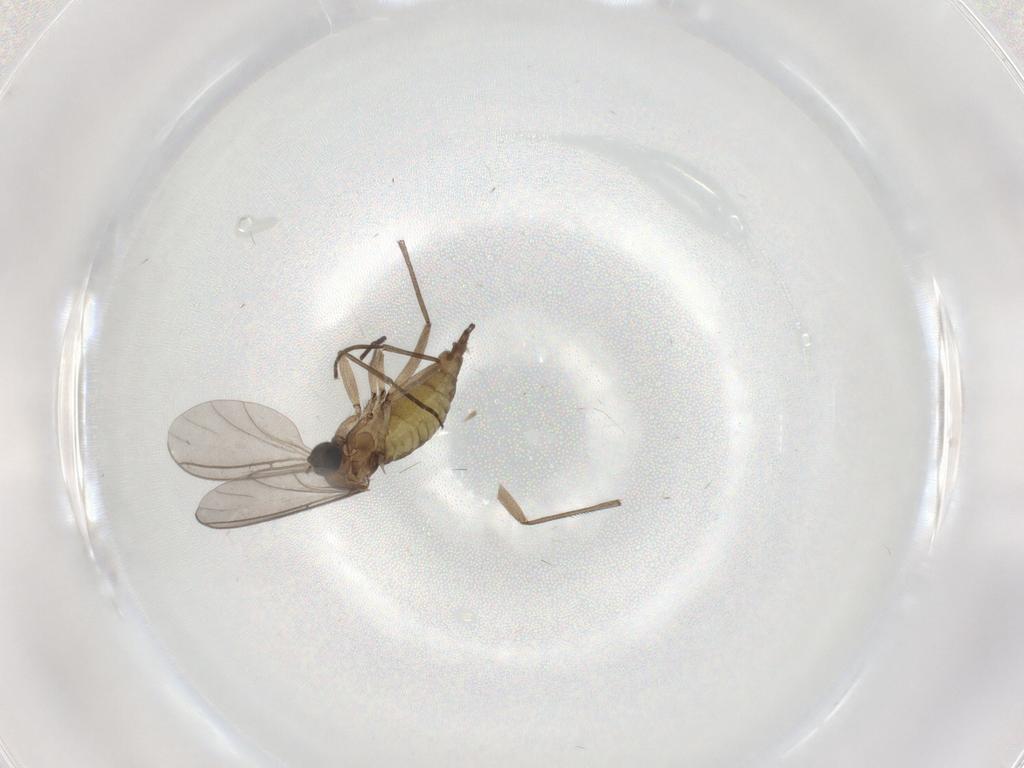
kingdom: Animalia
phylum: Arthropoda
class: Insecta
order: Diptera
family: Sciaridae
